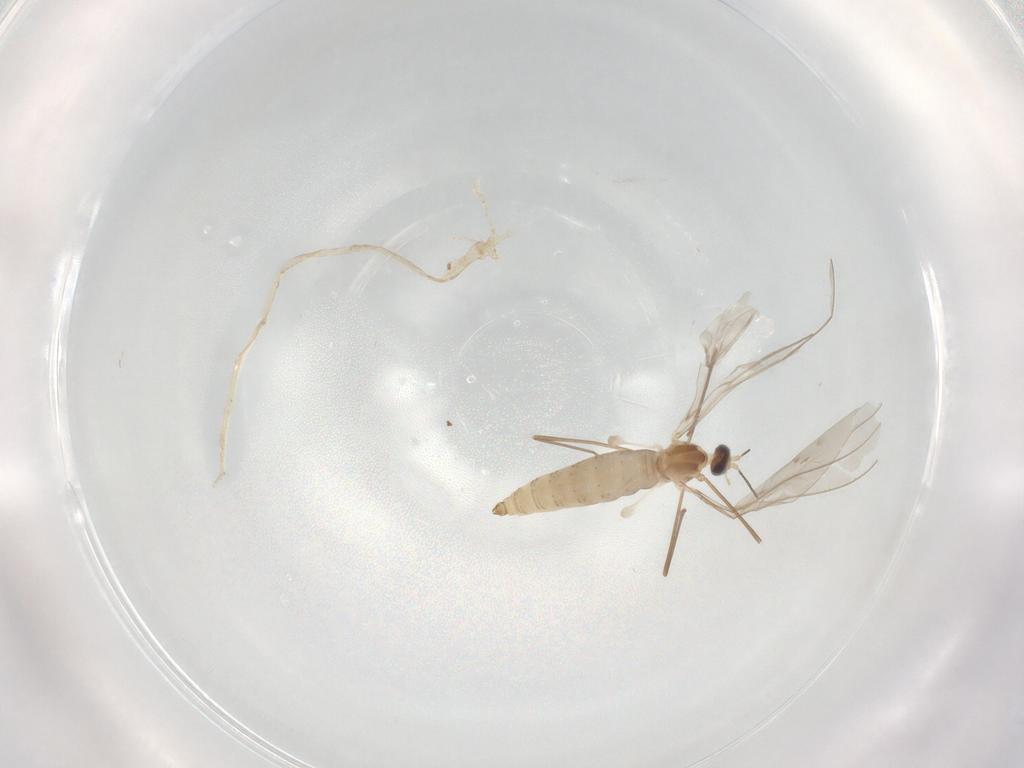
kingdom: Animalia
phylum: Arthropoda
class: Insecta
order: Diptera
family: Cecidomyiidae
